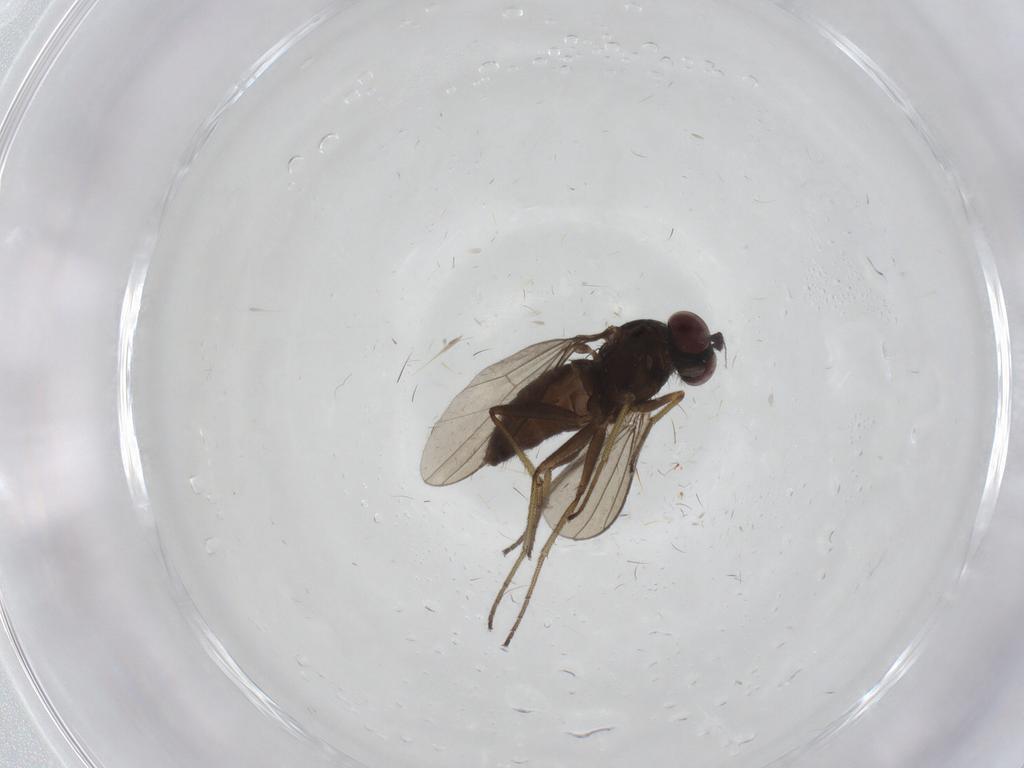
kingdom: Animalia
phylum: Arthropoda
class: Insecta
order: Diptera
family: Dolichopodidae
